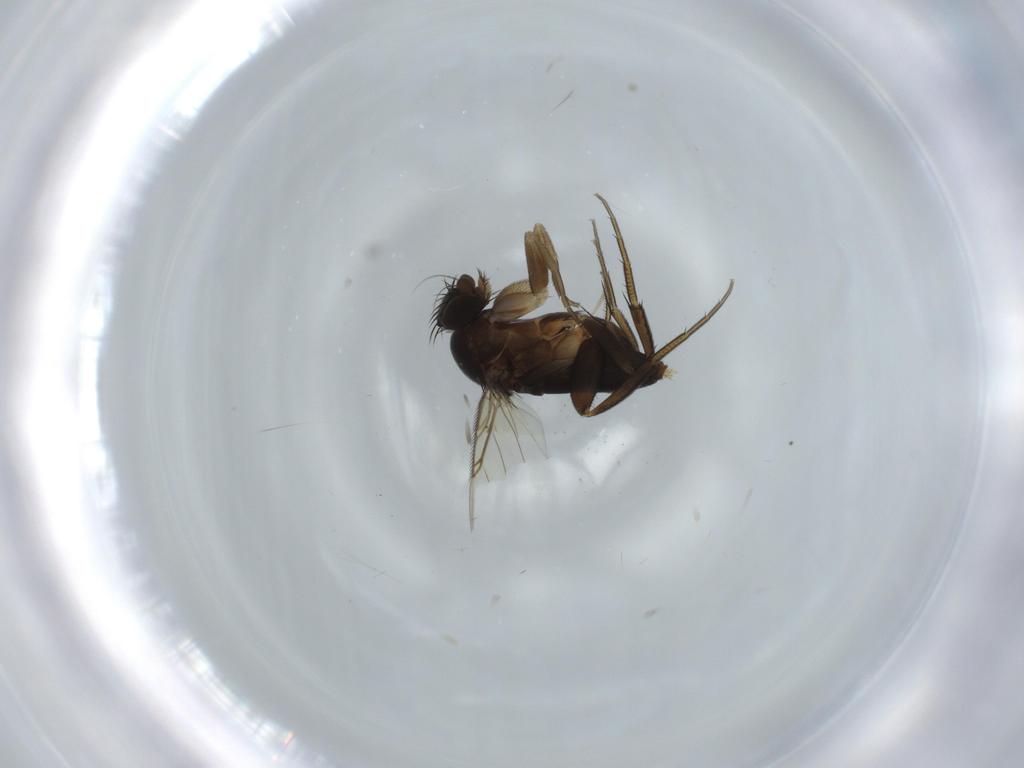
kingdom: Animalia
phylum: Arthropoda
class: Insecta
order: Diptera
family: Phoridae
